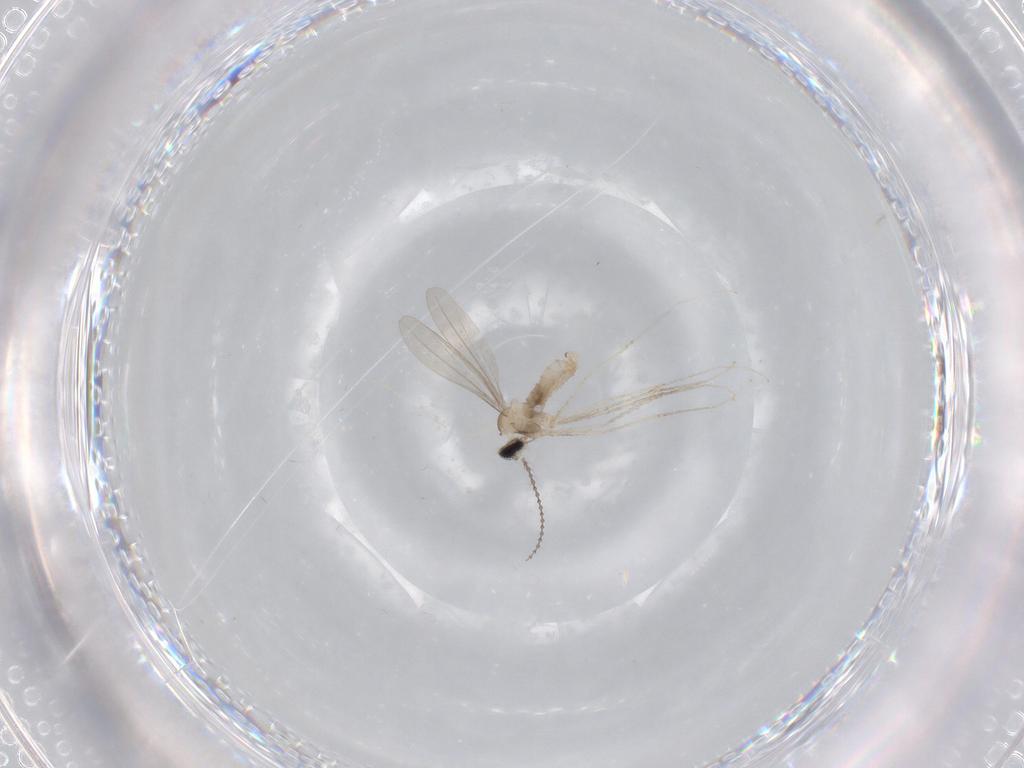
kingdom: Animalia
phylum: Arthropoda
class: Insecta
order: Diptera
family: Cecidomyiidae
